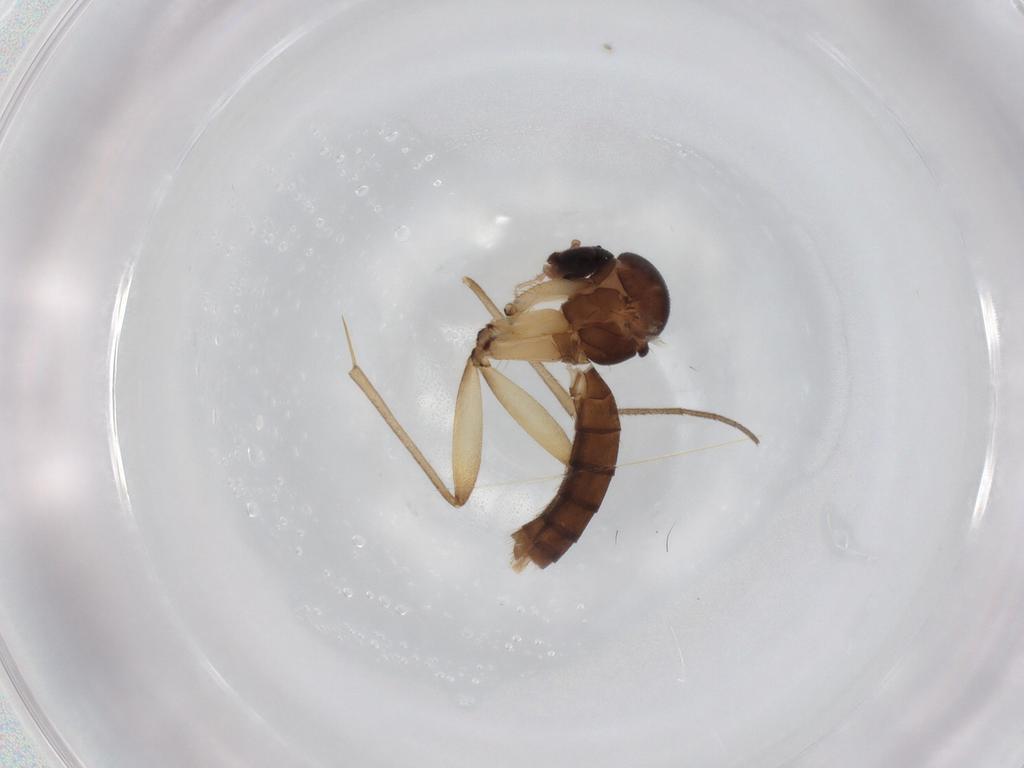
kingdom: Animalia
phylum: Arthropoda
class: Insecta
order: Diptera
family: Mycetophilidae
